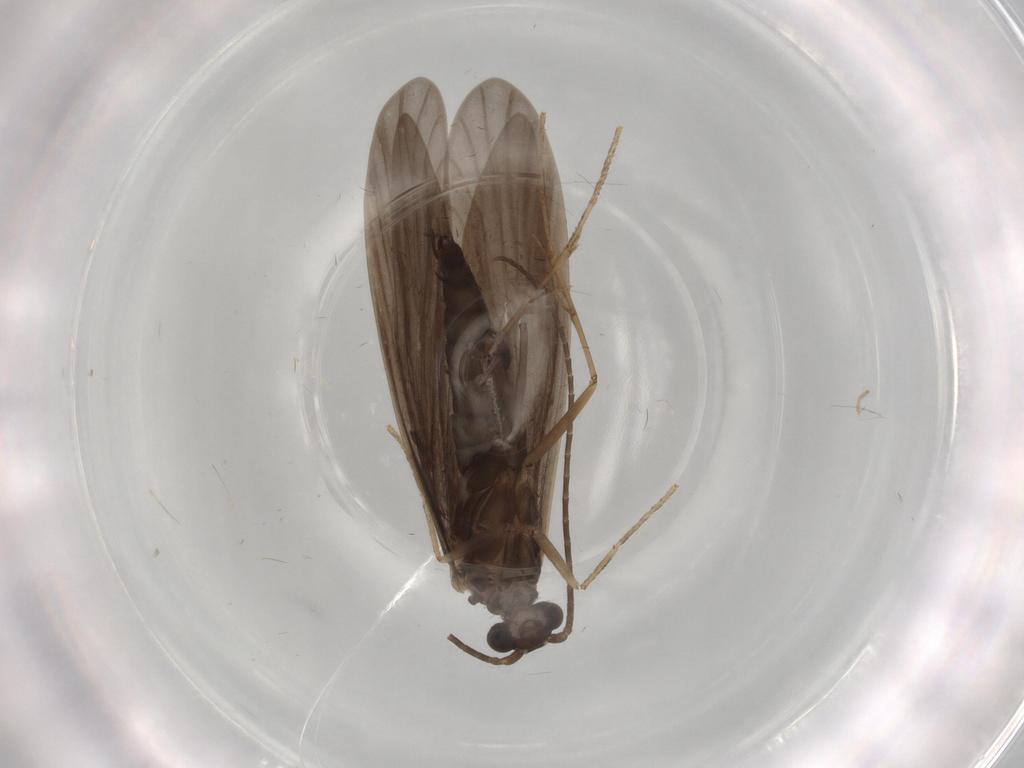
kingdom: Animalia
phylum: Arthropoda
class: Insecta
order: Trichoptera
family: Xiphocentronidae
